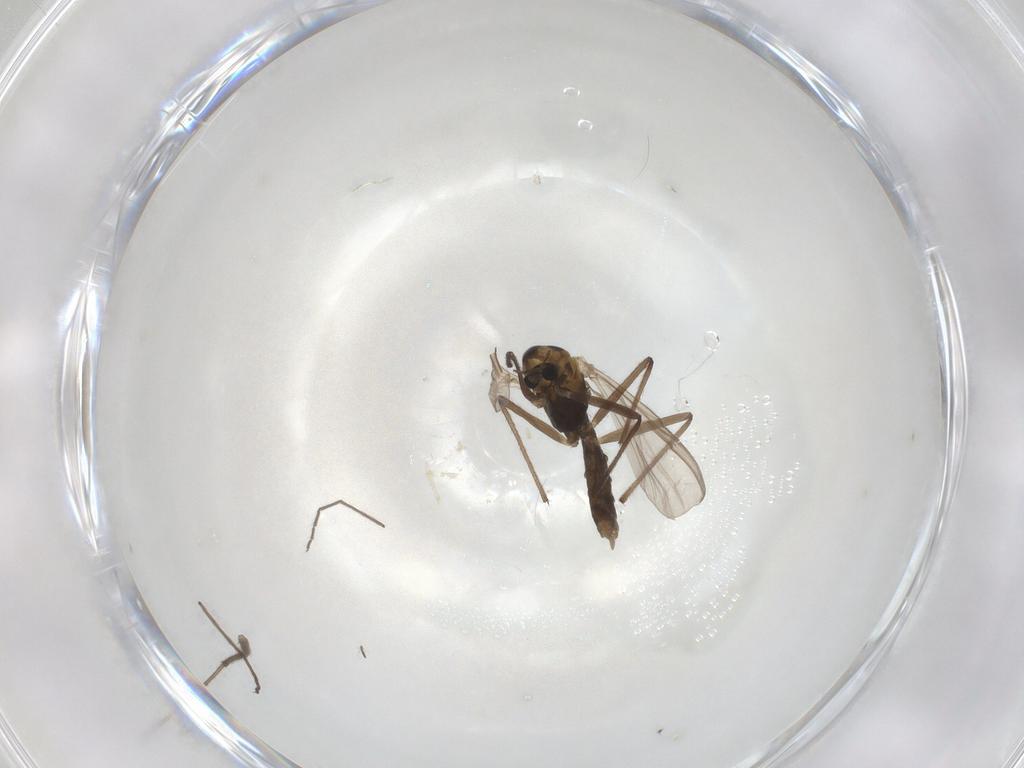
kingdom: Animalia
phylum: Arthropoda
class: Insecta
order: Diptera
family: Chironomidae
